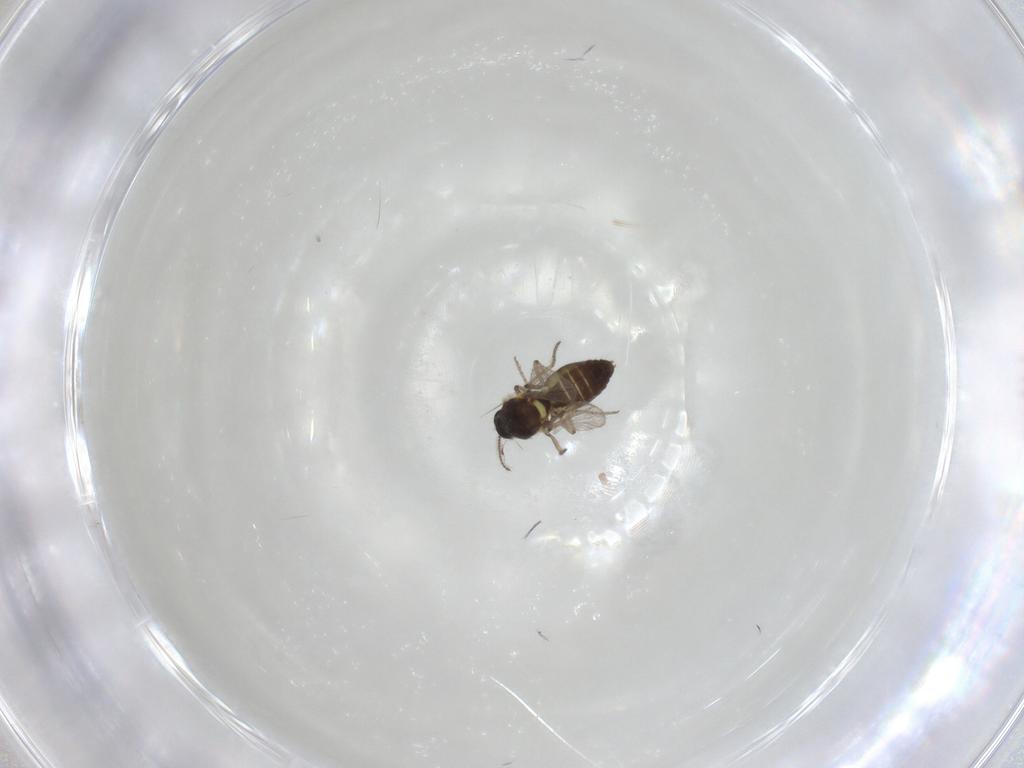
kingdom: Animalia
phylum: Arthropoda
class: Insecta
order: Diptera
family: Ceratopogonidae
